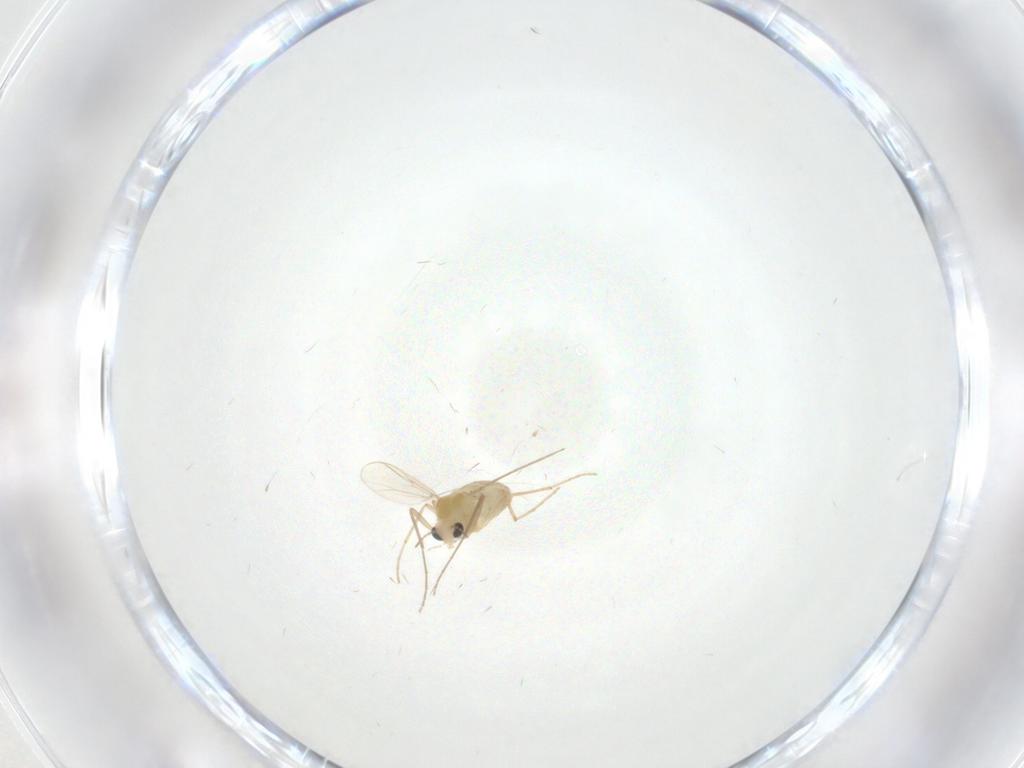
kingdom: Animalia
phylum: Arthropoda
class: Insecta
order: Diptera
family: Chironomidae
